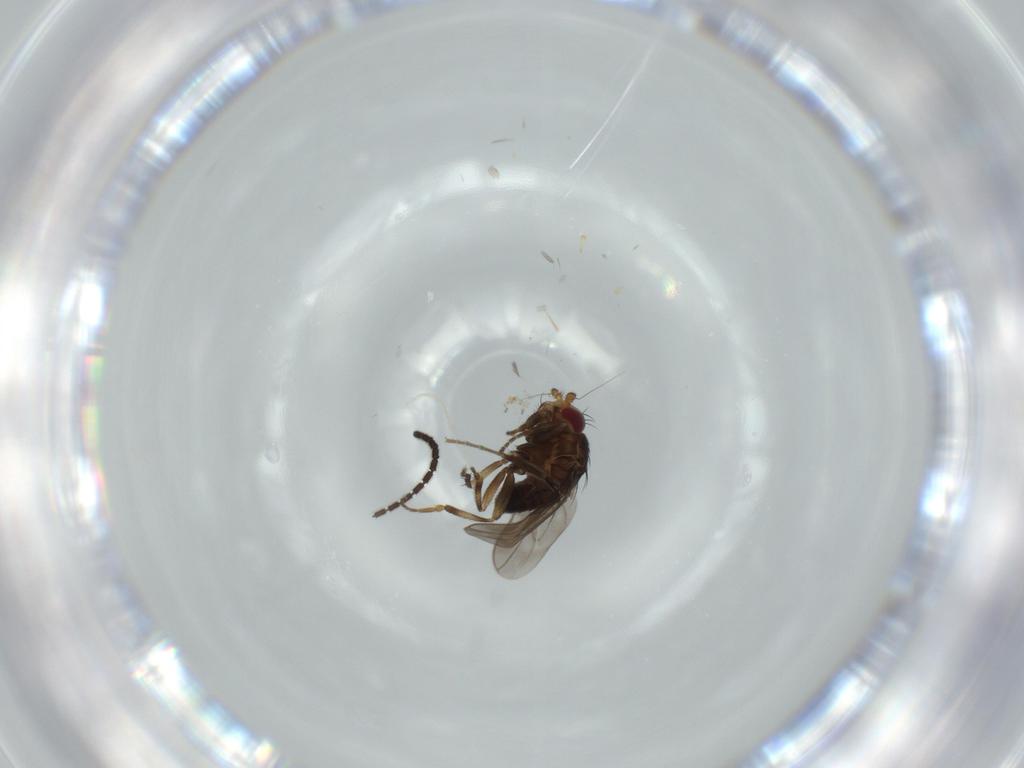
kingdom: Animalia
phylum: Arthropoda
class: Insecta
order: Diptera
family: Sciaridae
